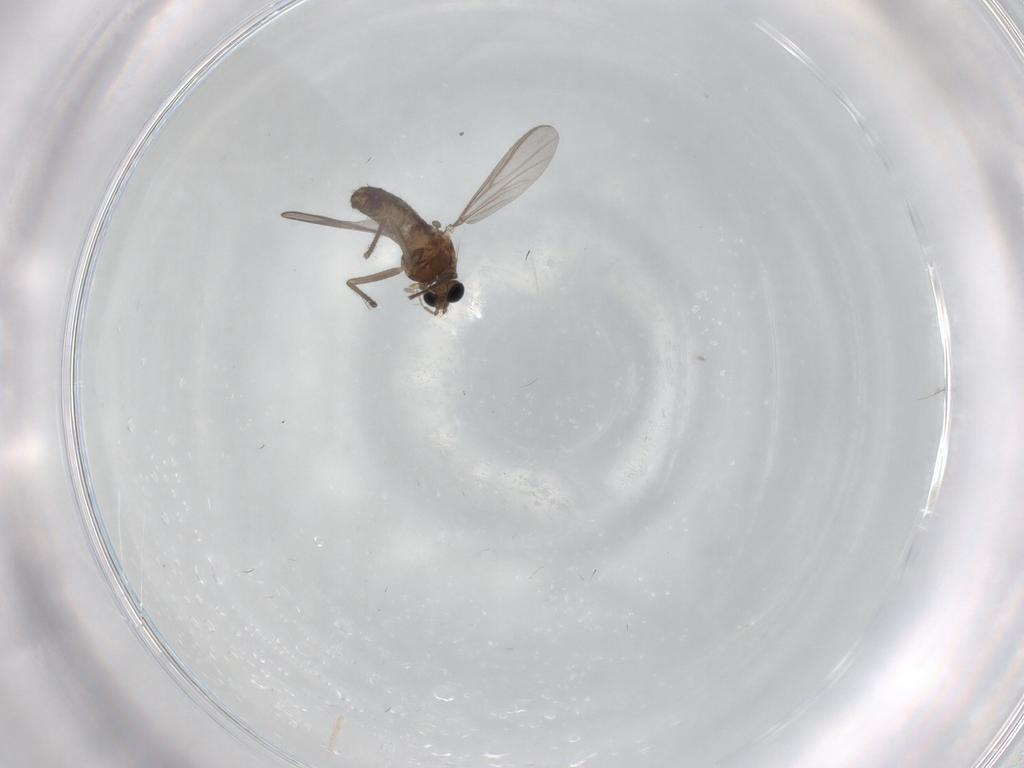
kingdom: Animalia
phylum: Arthropoda
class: Insecta
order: Diptera
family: Chironomidae
